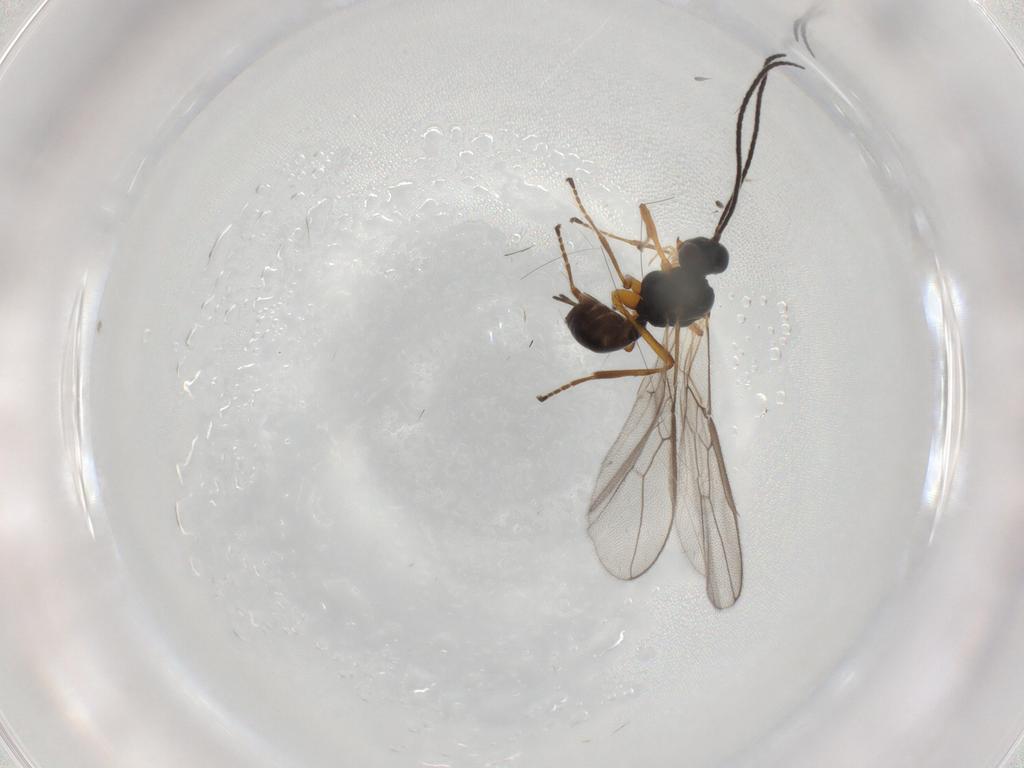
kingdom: Animalia
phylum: Arthropoda
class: Insecta
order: Hymenoptera
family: Braconidae
